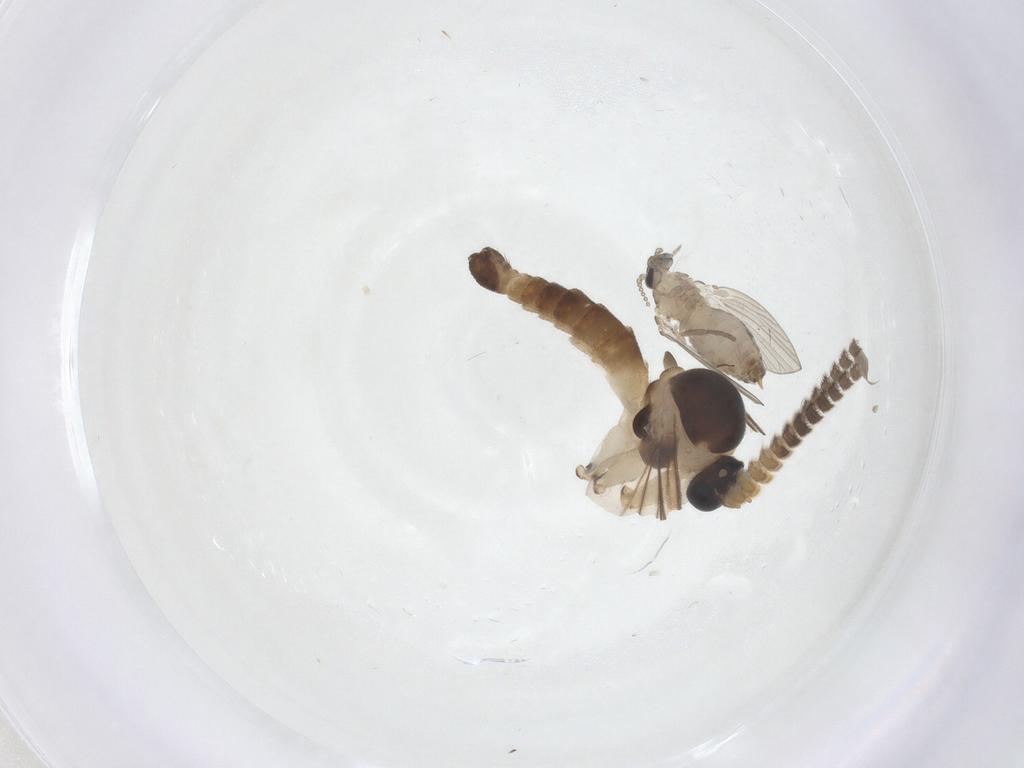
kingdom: Animalia
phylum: Arthropoda
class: Insecta
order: Diptera
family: Psychodidae
